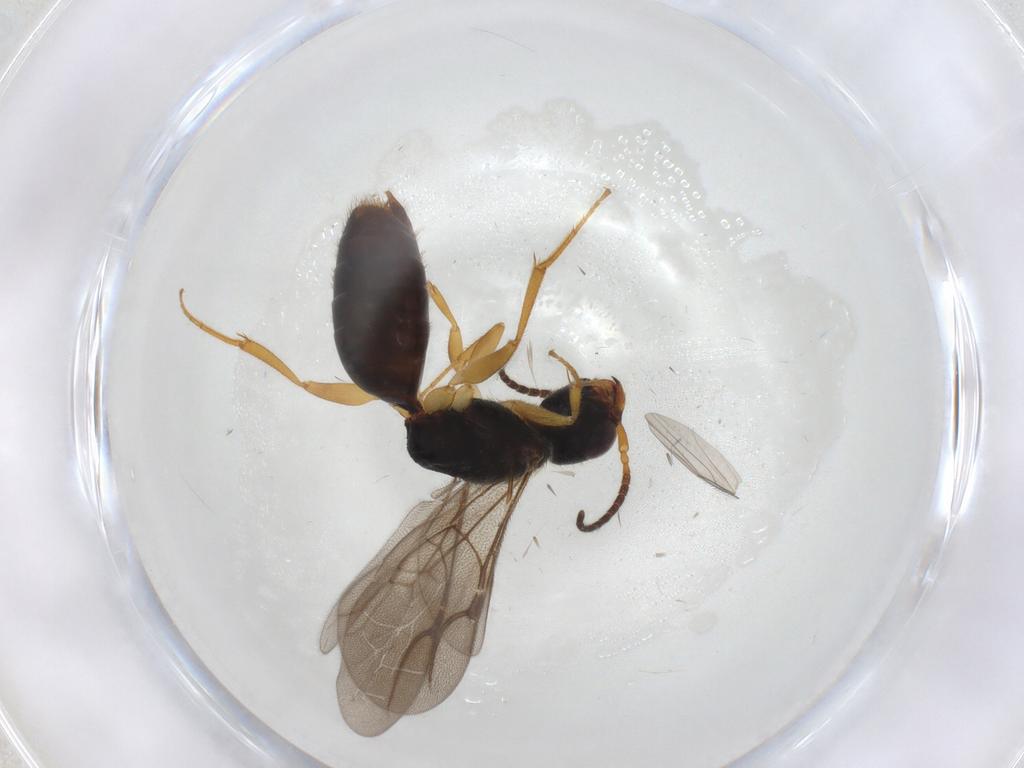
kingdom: Animalia
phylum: Arthropoda
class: Insecta
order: Hymenoptera
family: Bethylidae
